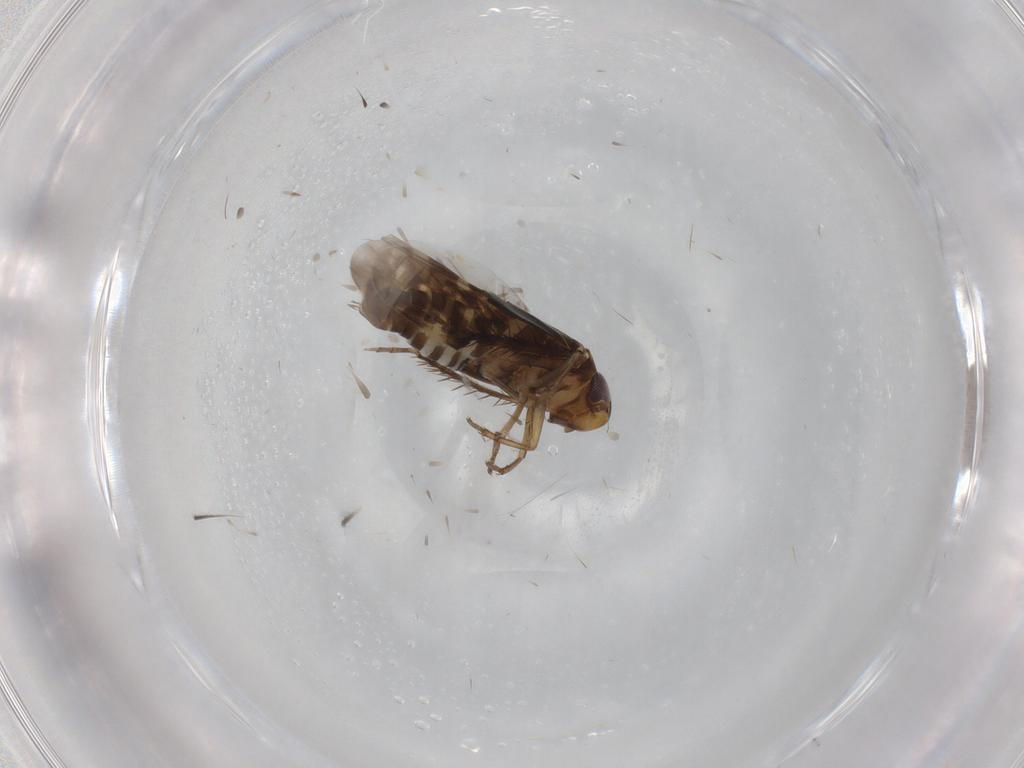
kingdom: Animalia
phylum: Arthropoda
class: Insecta
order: Hemiptera
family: Cicadellidae
